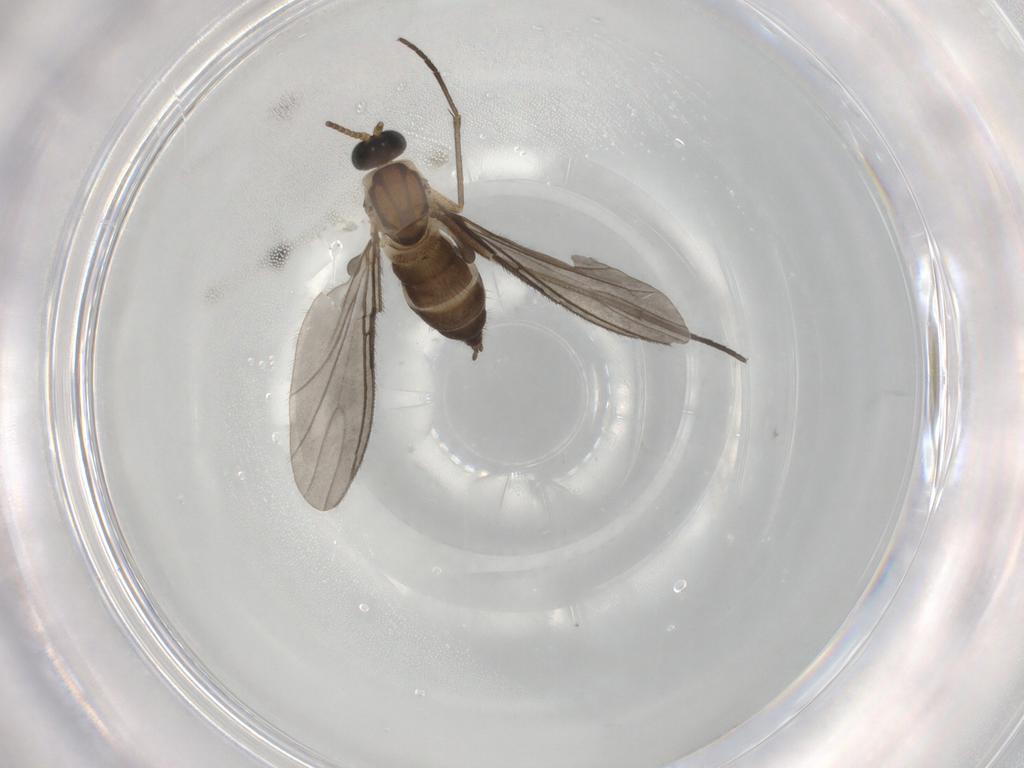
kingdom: Animalia
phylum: Arthropoda
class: Insecta
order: Diptera
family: Sciaridae
